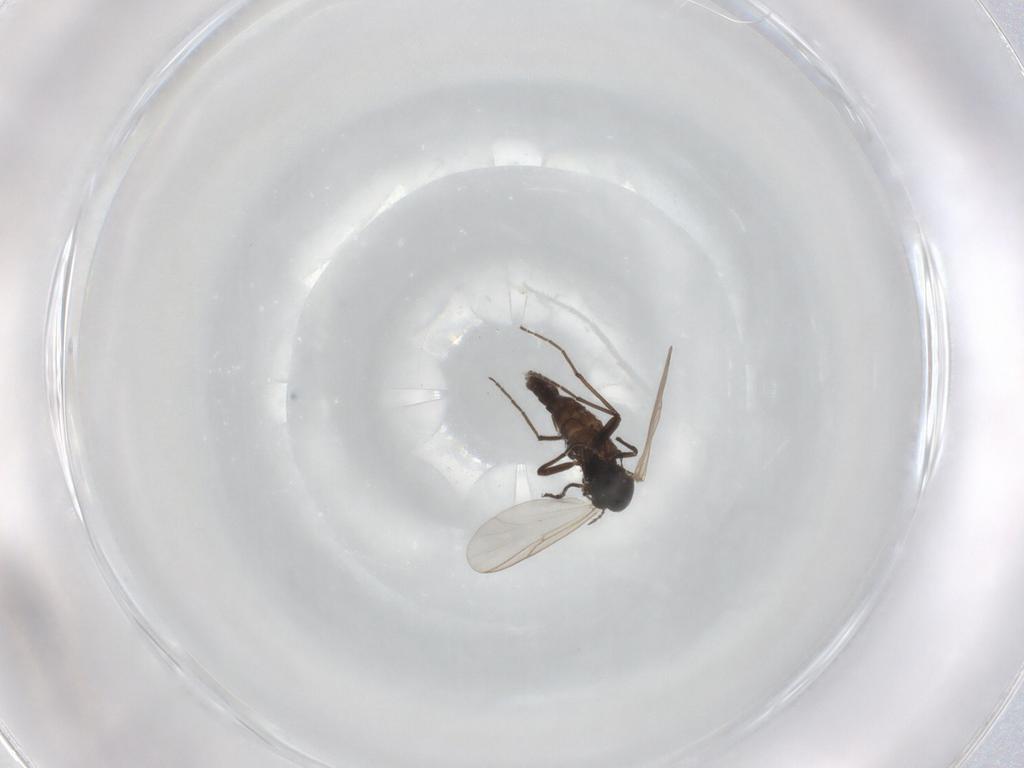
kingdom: Animalia
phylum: Arthropoda
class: Insecta
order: Diptera
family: Chironomidae
